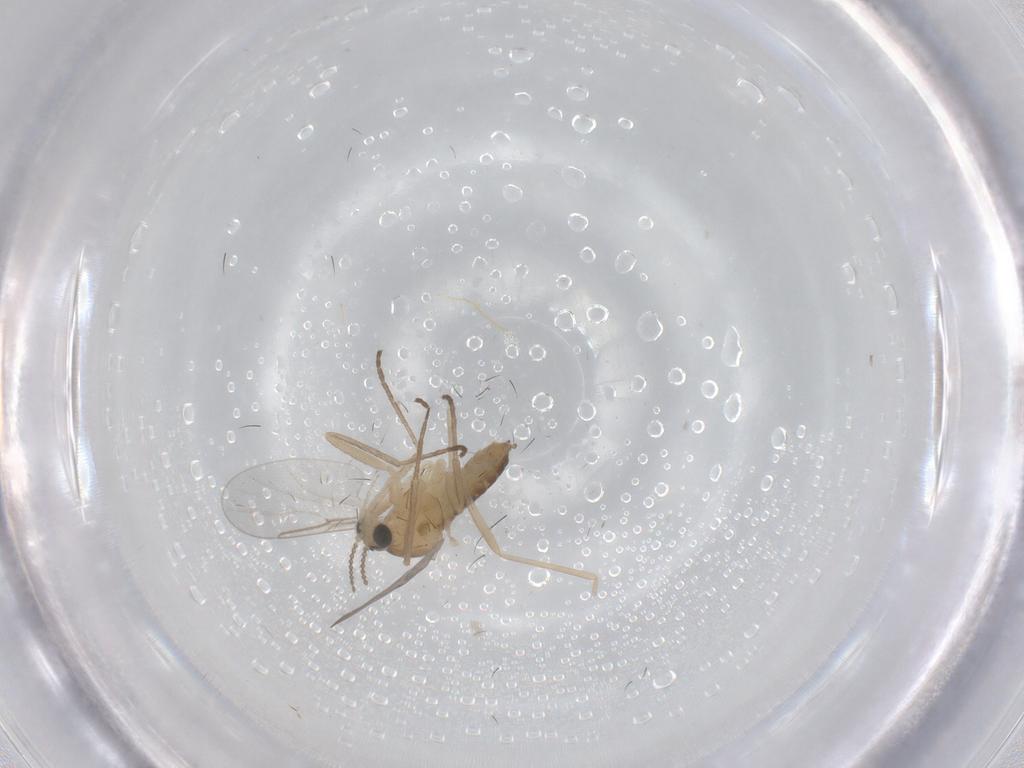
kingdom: Animalia
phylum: Arthropoda
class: Insecta
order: Diptera
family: Cecidomyiidae
